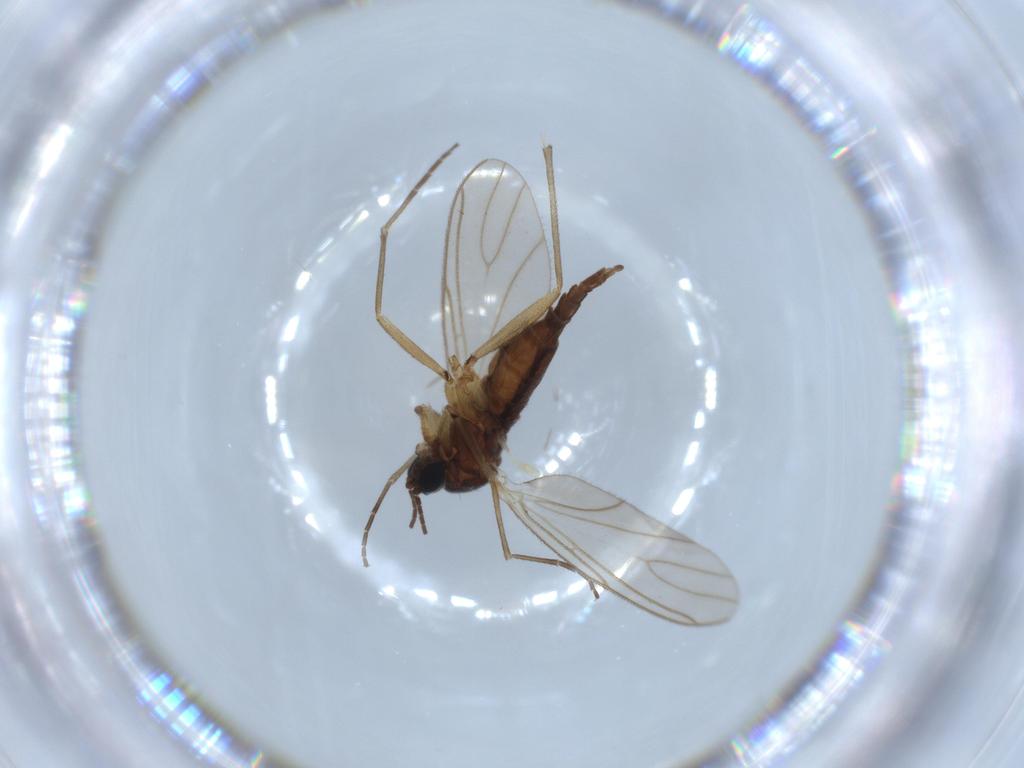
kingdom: Animalia
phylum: Arthropoda
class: Insecta
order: Diptera
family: Sciaridae
